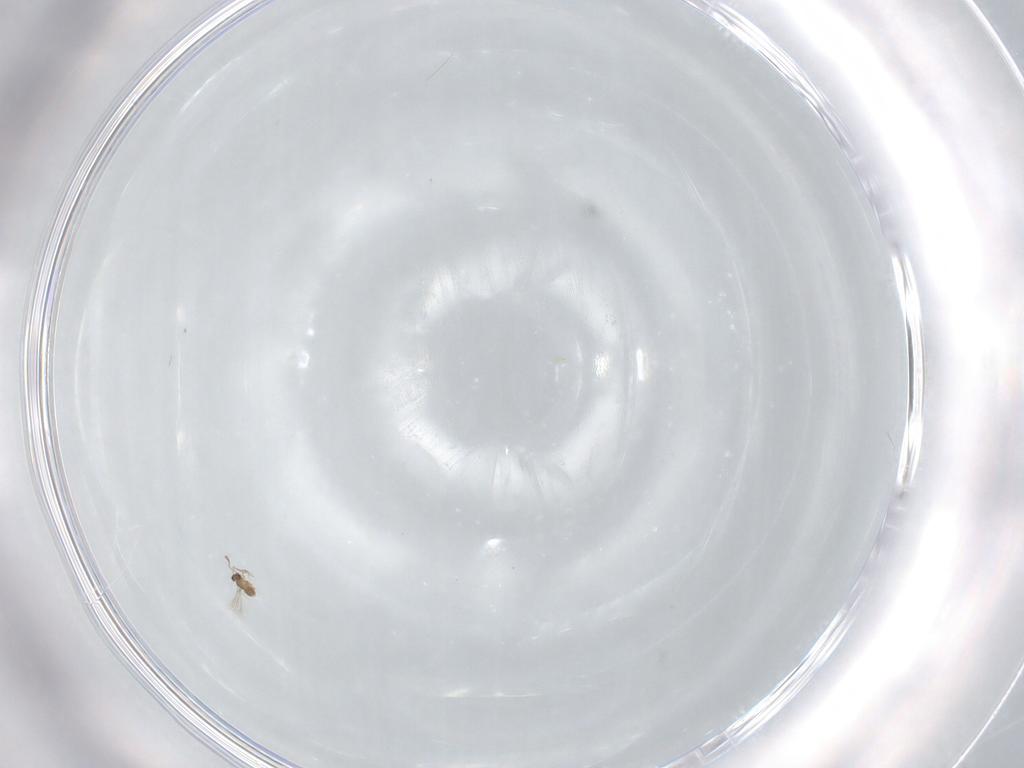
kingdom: Animalia
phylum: Arthropoda
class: Insecta
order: Hymenoptera
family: Mymaridae
